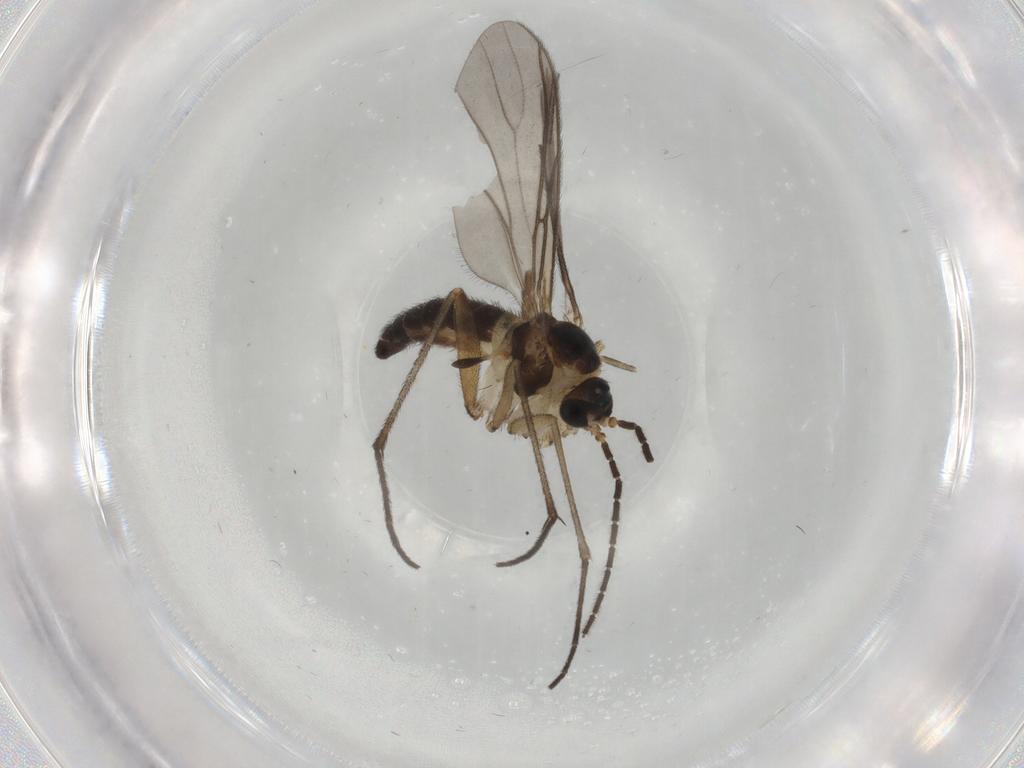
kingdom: Animalia
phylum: Arthropoda
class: Insecta
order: Diptera
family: Sciaridae
